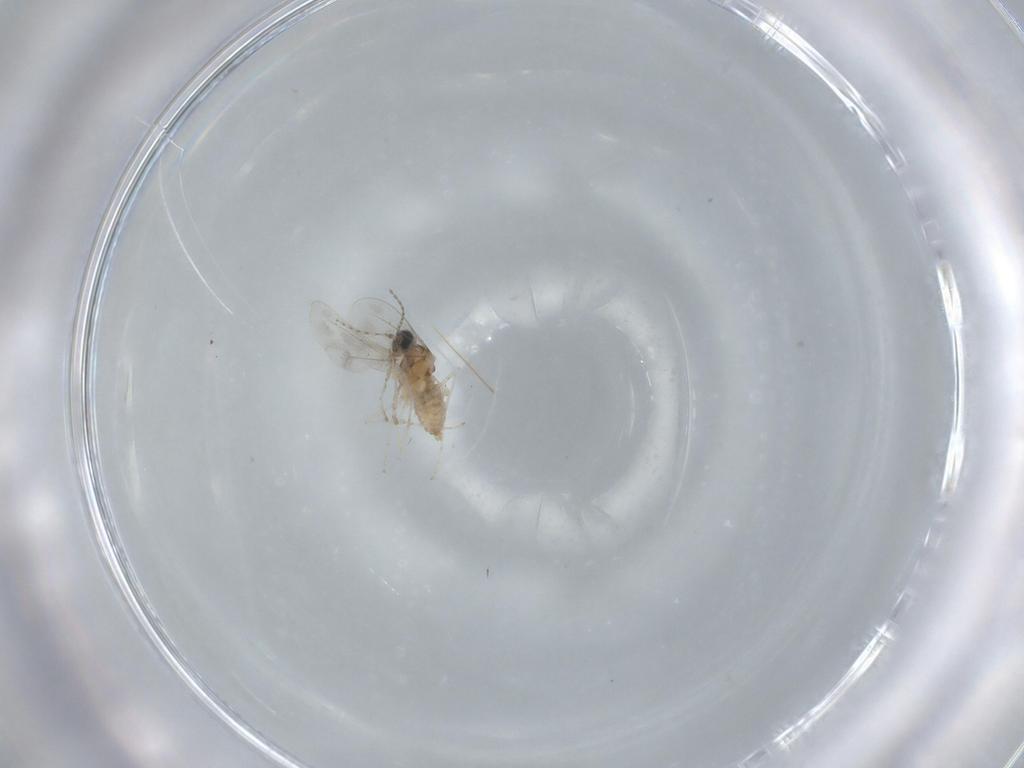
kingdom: Animalia
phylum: Arthropoda
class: Insecta
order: Diptera
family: Cecidomyiidae
